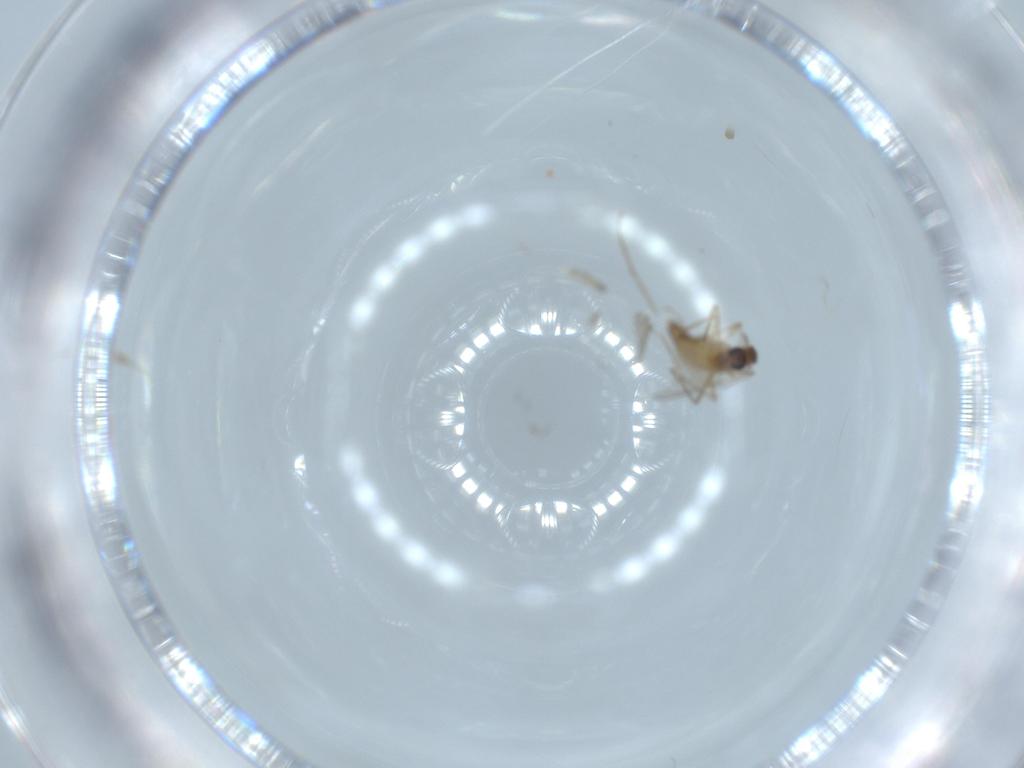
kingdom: Animalia
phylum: Arthropoda
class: Insecta
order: Diptera
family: Chironomidae
